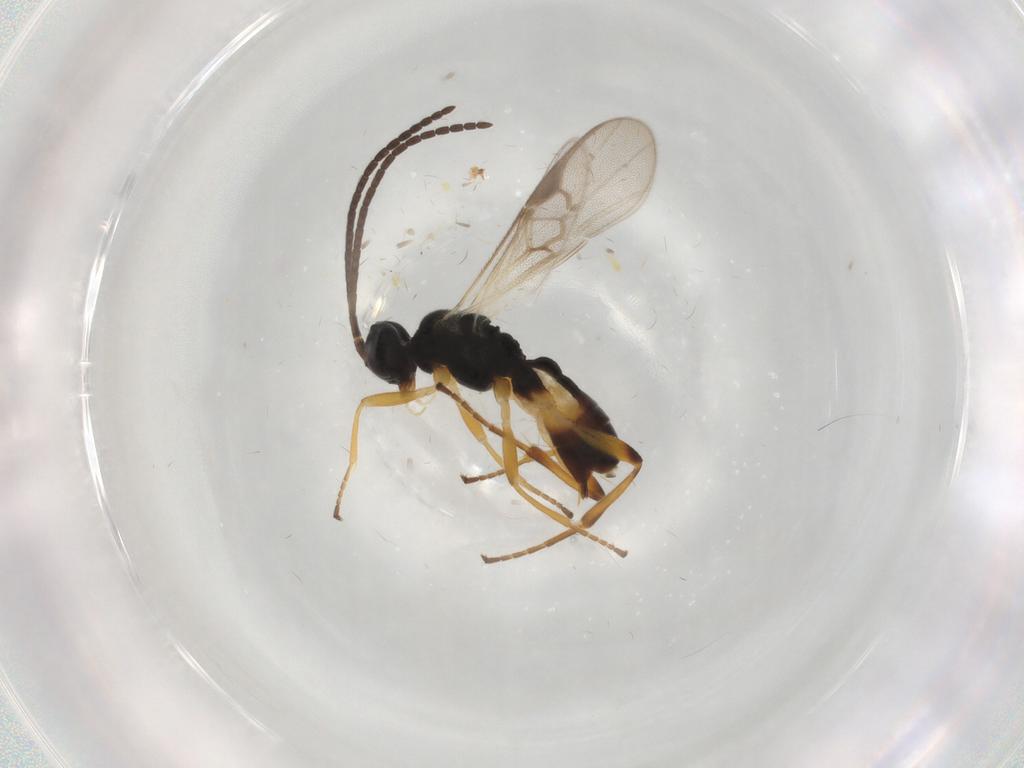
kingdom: Animalia
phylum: Arthropoda
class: Insecta
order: Hymenoptera
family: Braconidae
